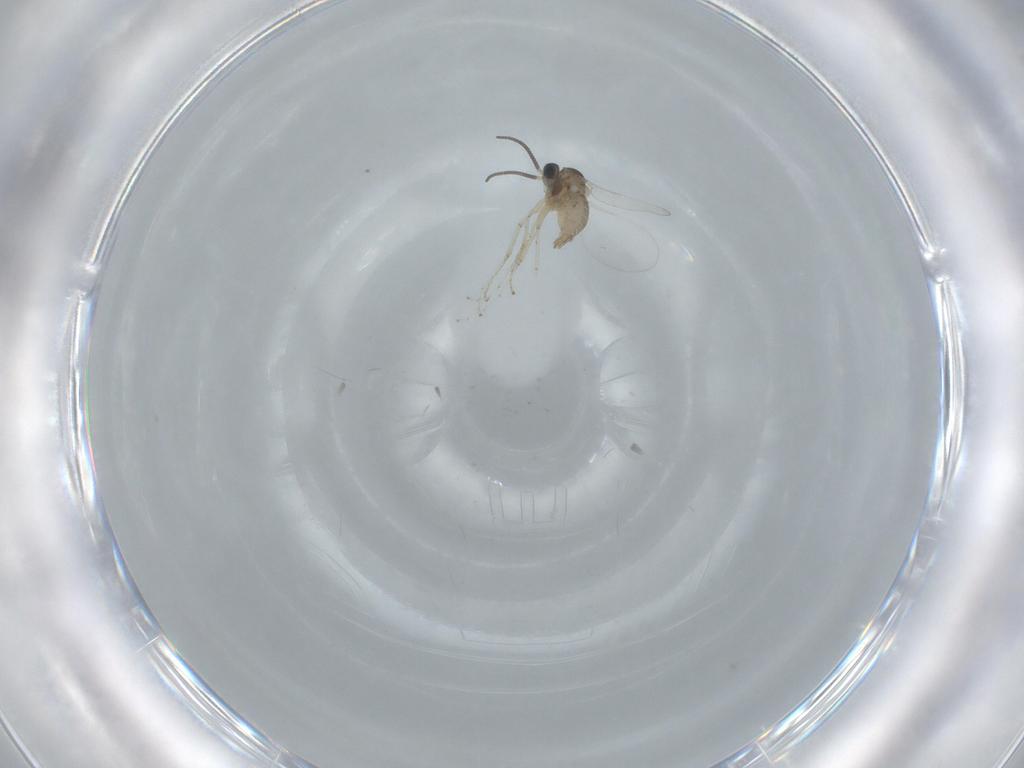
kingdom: Animalia
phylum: Arthropoda
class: Insecta
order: Diptera
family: Cecidomyiidae
